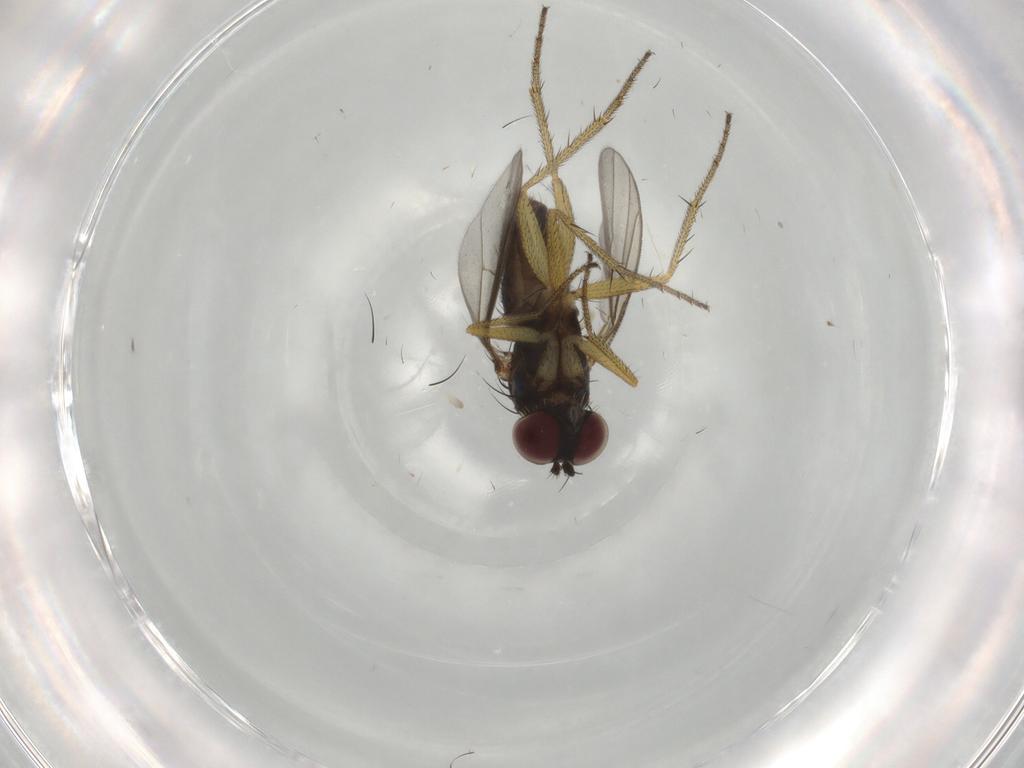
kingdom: Animalia
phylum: Arthropoda
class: Insecta
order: Diptera
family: Dolichopodidae
